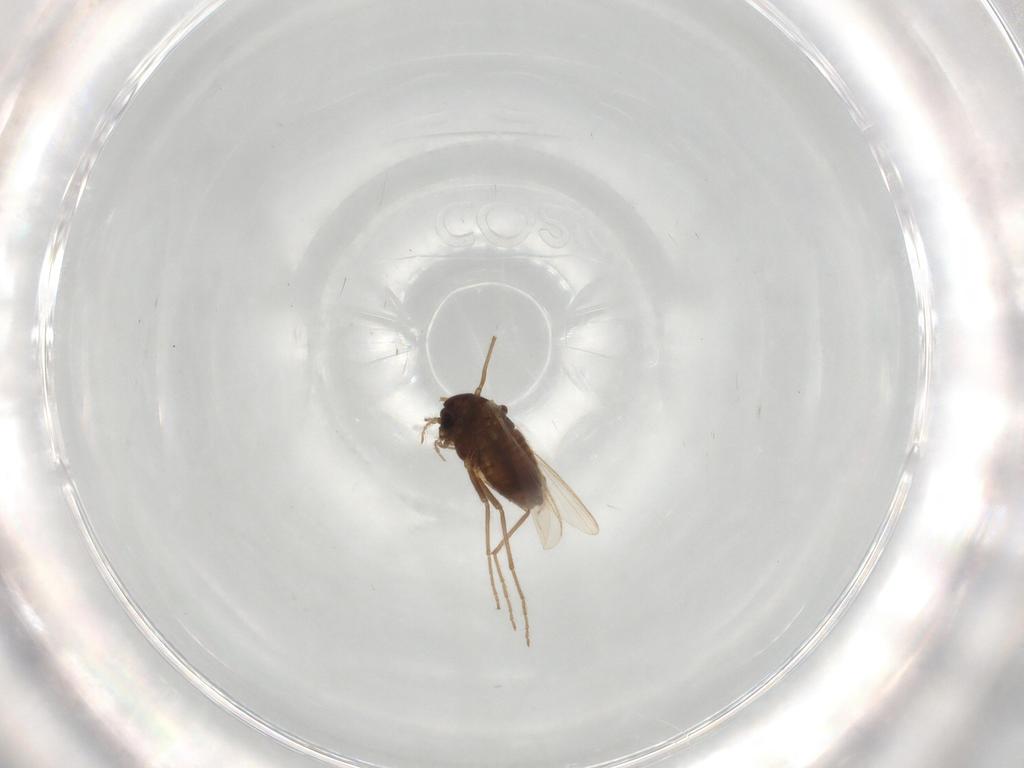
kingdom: Animalia
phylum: Arthropoda
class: Insecta
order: Diptera
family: Chironomidae
